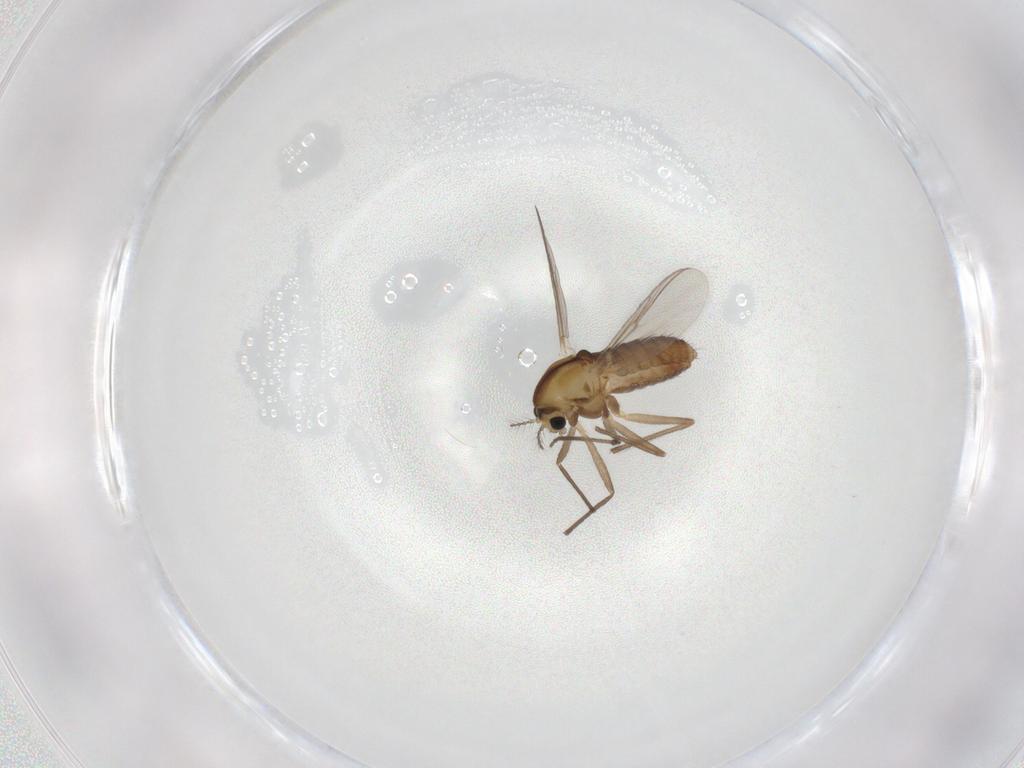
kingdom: Animalia
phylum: Arthropoda
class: Insecta
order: Diptera
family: Chironomidae
